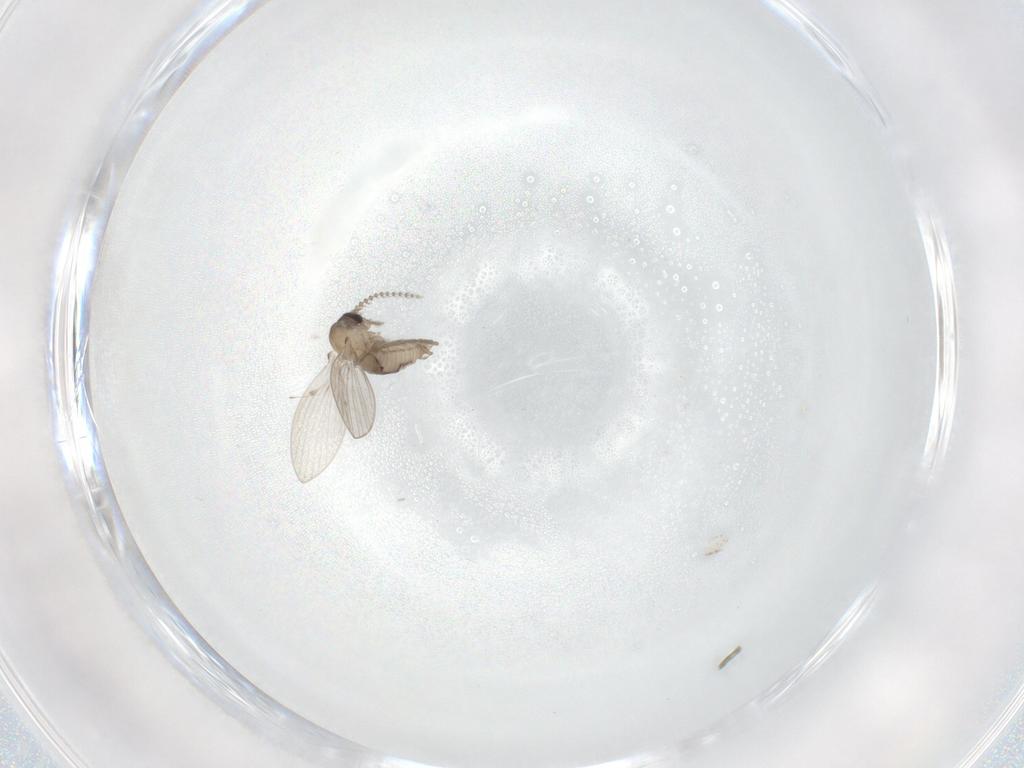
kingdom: Animalia
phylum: Arthropoda
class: Insecta
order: Diptera
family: Psychodidae
